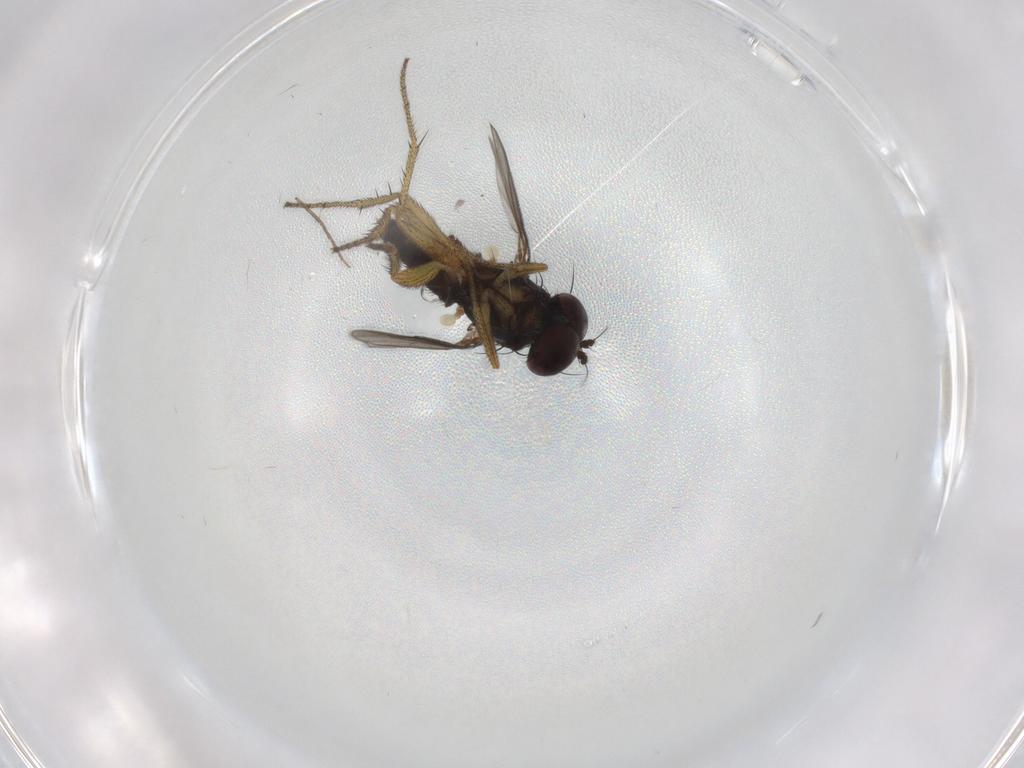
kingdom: Animalia
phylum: Arthropoda
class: Insecta
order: Diptera
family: Dolichopodidae
